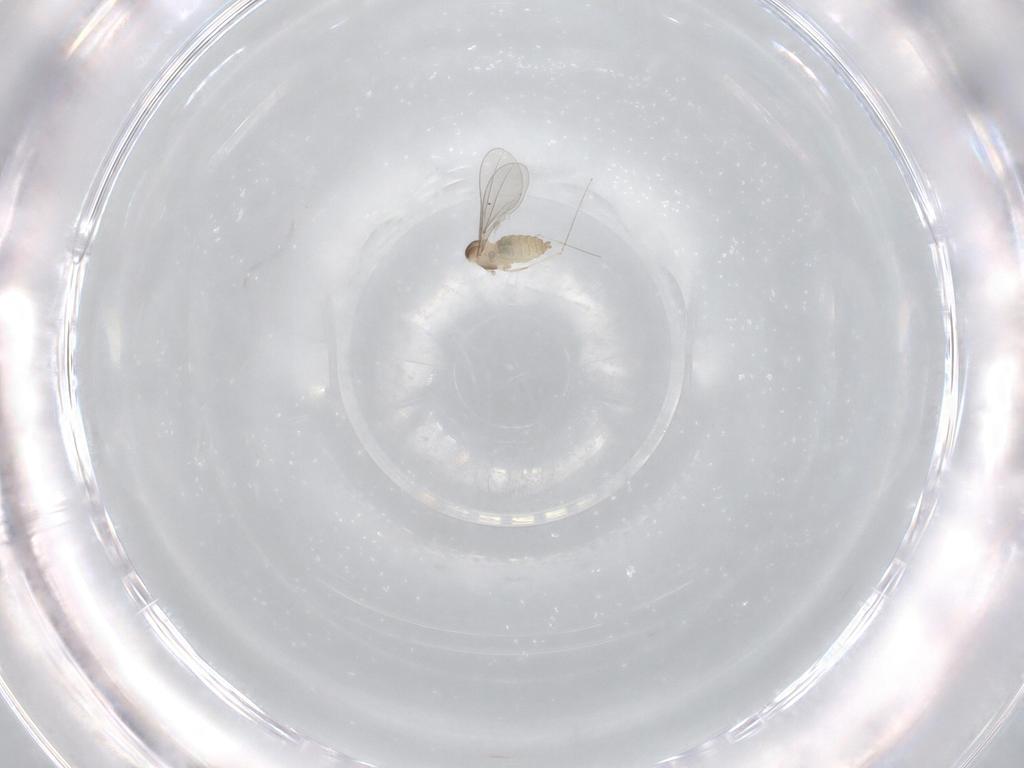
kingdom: Animalia
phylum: Arthropoda
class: Insecta
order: Diptera
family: Cecidomyiidae
